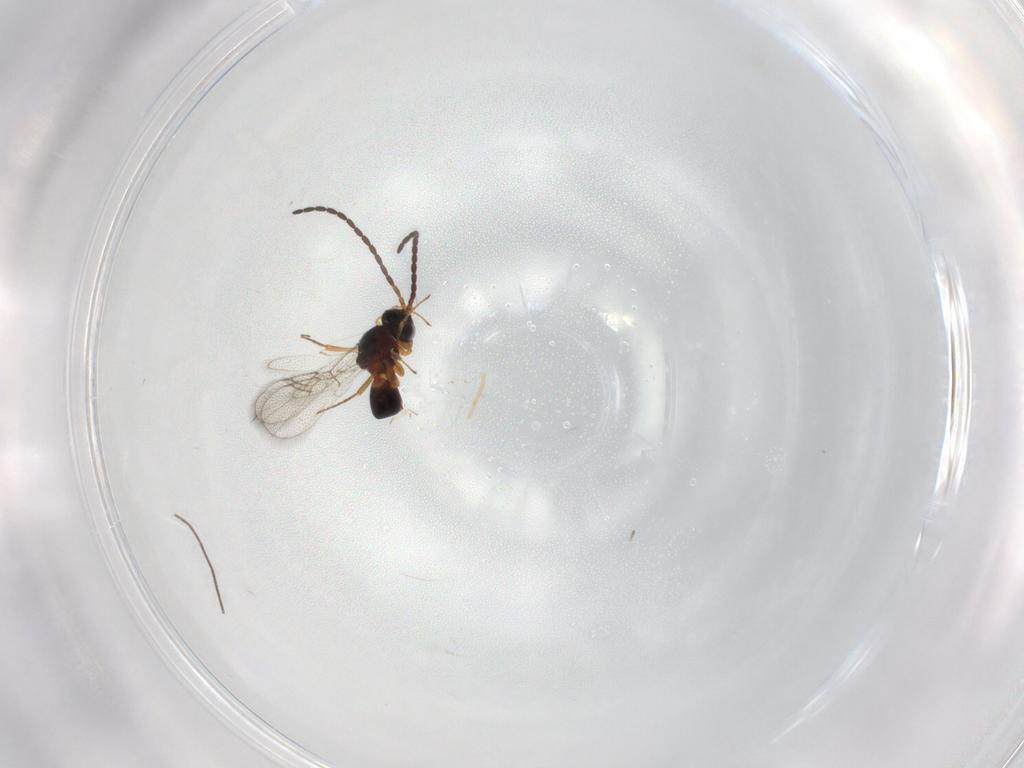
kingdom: Animalia
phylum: Arthropoda
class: Insecta
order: Hymenoptera
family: Figitidae
